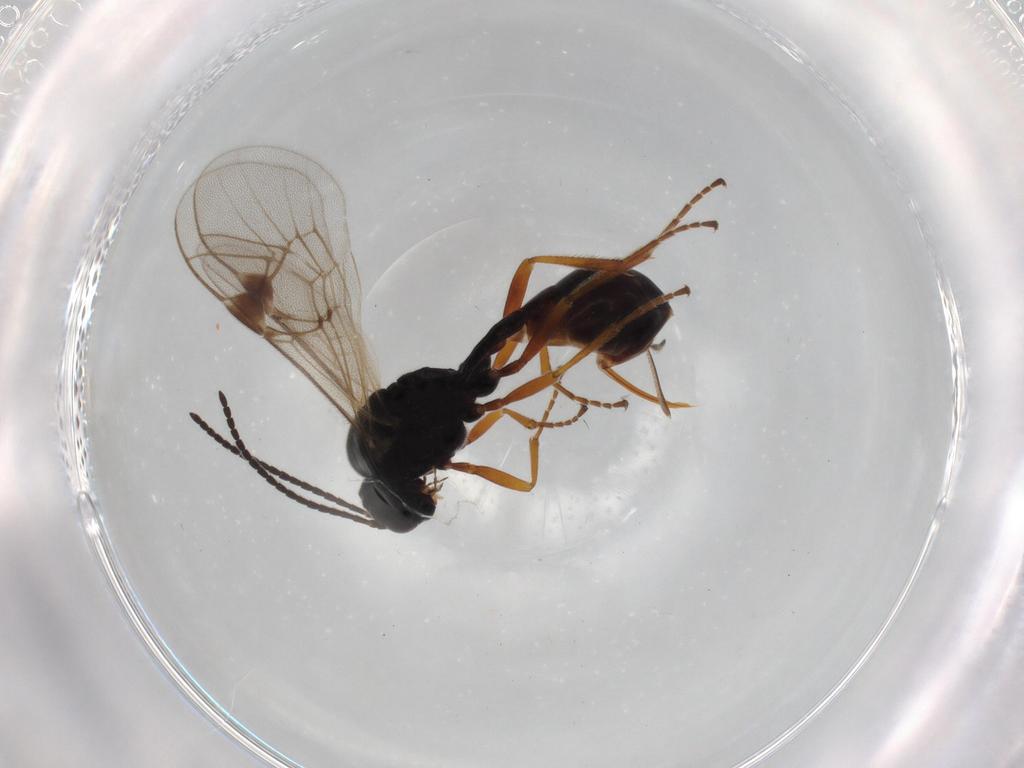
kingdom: Animalia
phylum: Arthropoda
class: Insecta
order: Hymenoptera
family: Ichneumonidae
